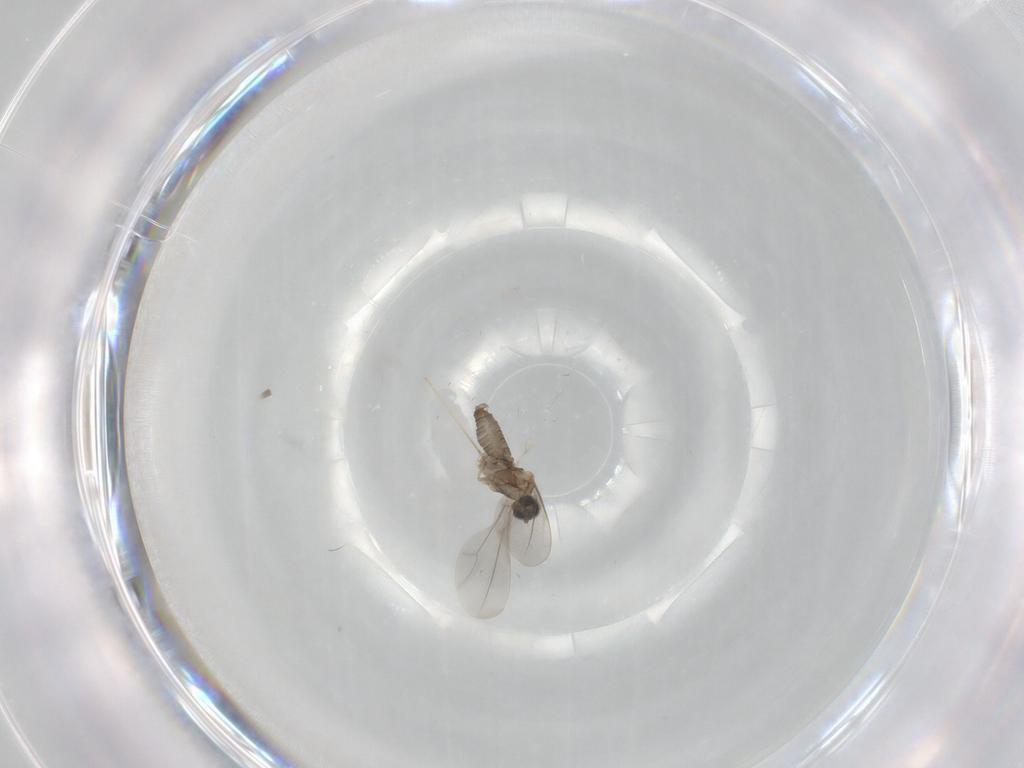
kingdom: Animalia
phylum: Arthropoda
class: Insecta
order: Diptera
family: Cecidomyiidae
